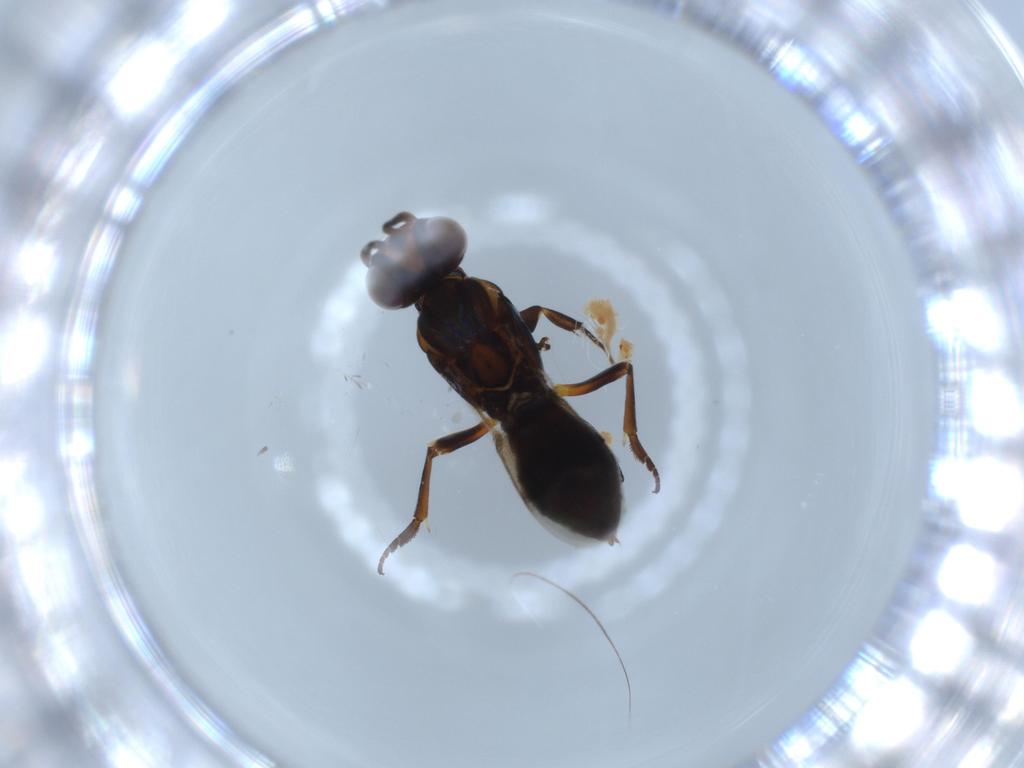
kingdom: Animalia
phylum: Arthropoda
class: Insecta
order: Hymenoptera
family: Eupelmidae
